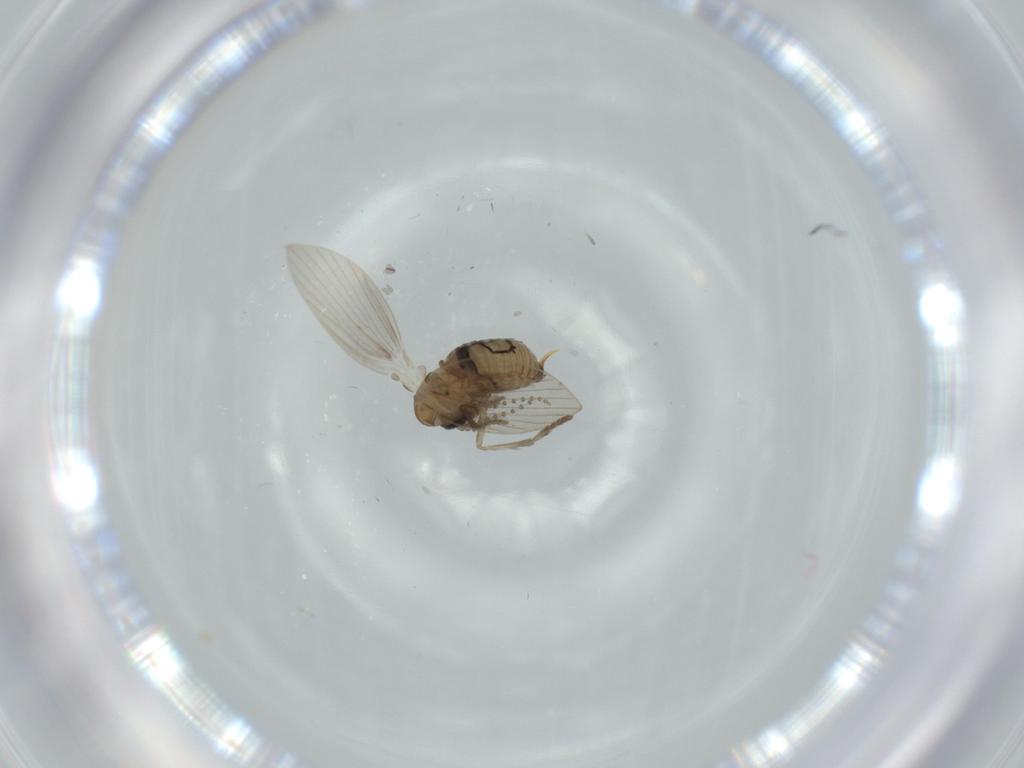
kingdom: Animalia
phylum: Arthropoda
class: Insecta
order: Diptera
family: Psychodidae
